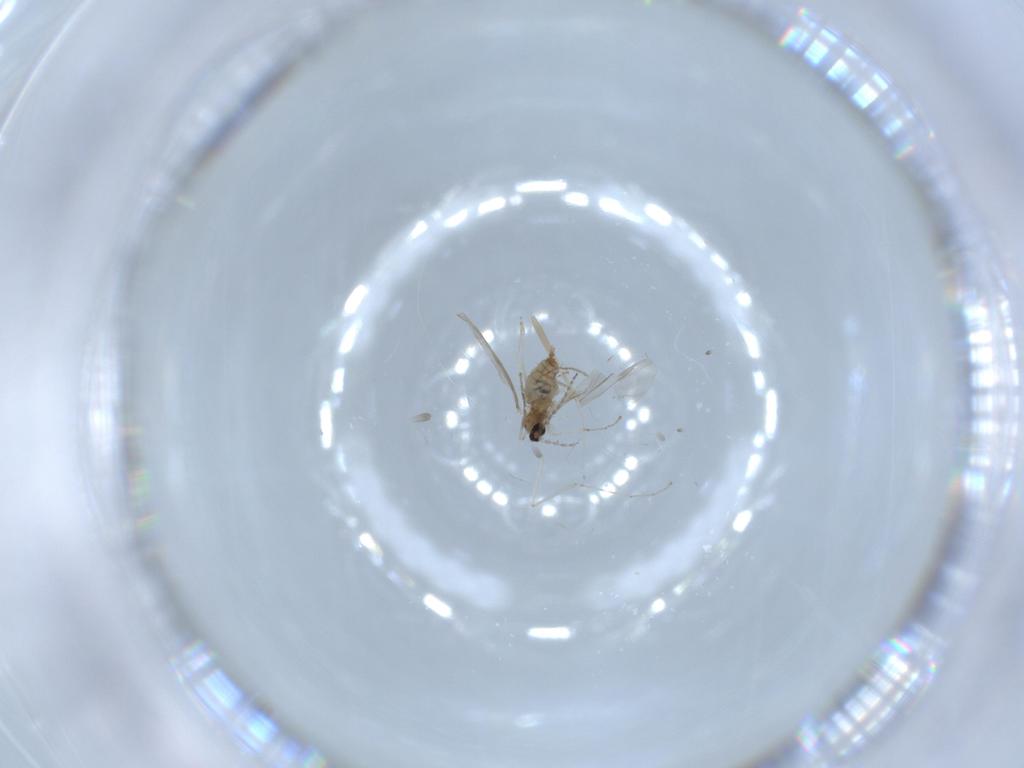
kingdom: Animalia
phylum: Arthropoda
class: Insecta
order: Diptera
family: Cecidomyiidae
